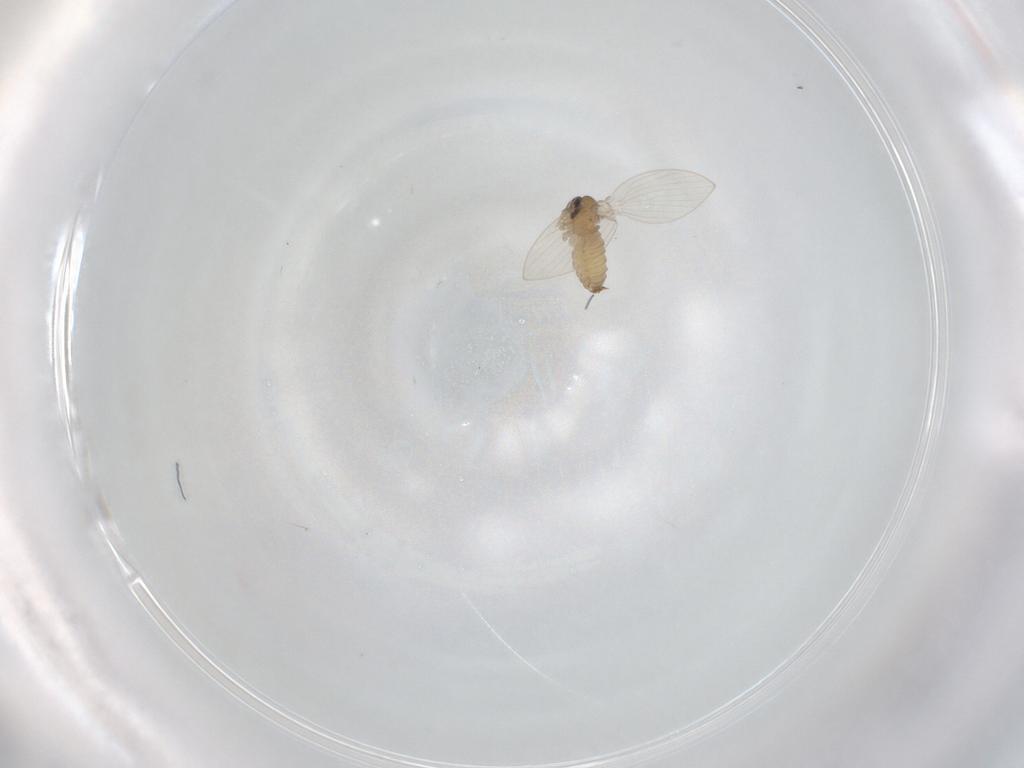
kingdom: Animalia
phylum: Arthropoda
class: Insecta
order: Diptera
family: Psychodidae
